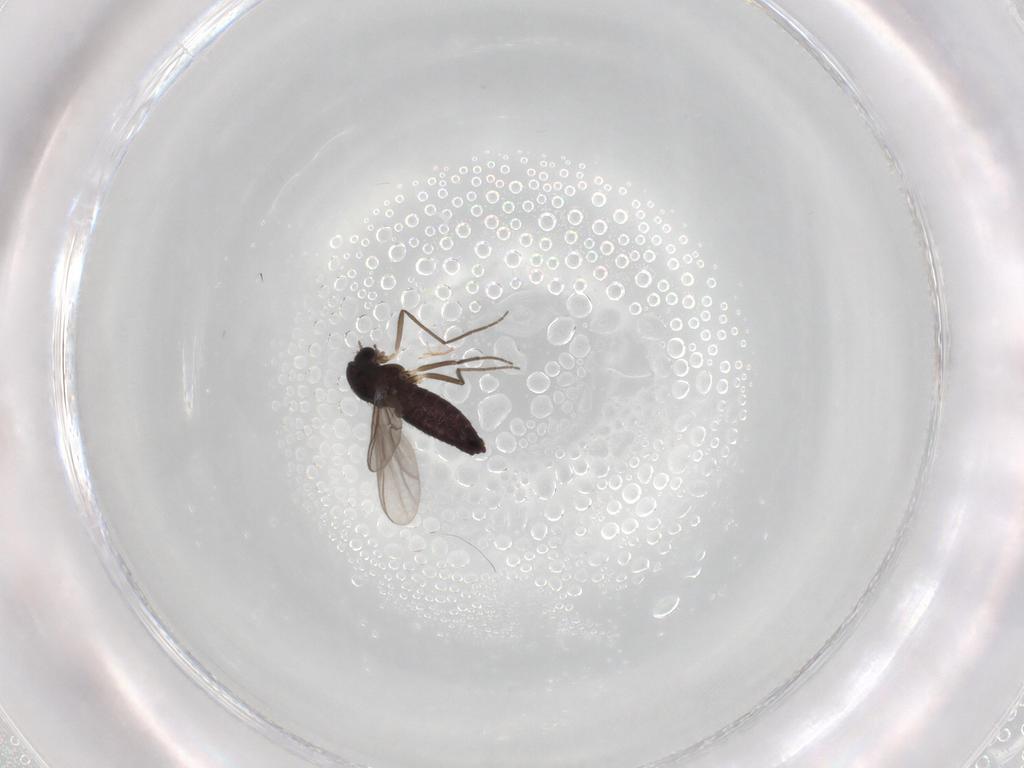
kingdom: Animalia
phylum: Arthropoda
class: Insecta
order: Diptera
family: Chironomidae
